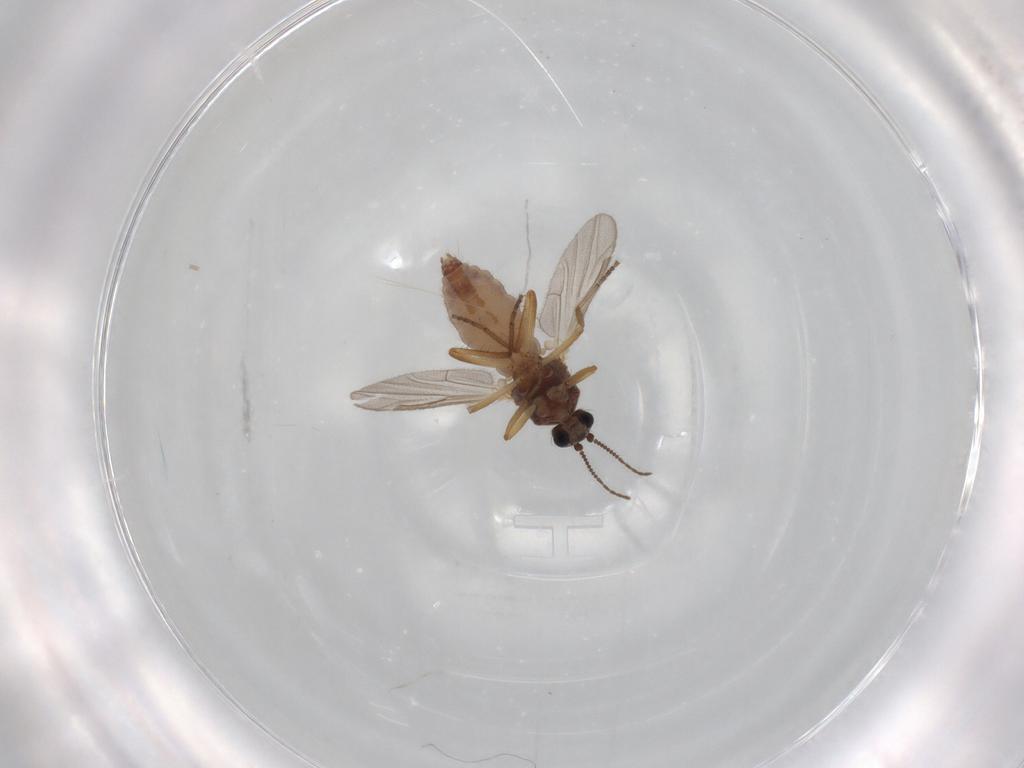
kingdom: Animalia
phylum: Arthropoda
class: Insecta
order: Diptera
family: Ceratopogonidae
